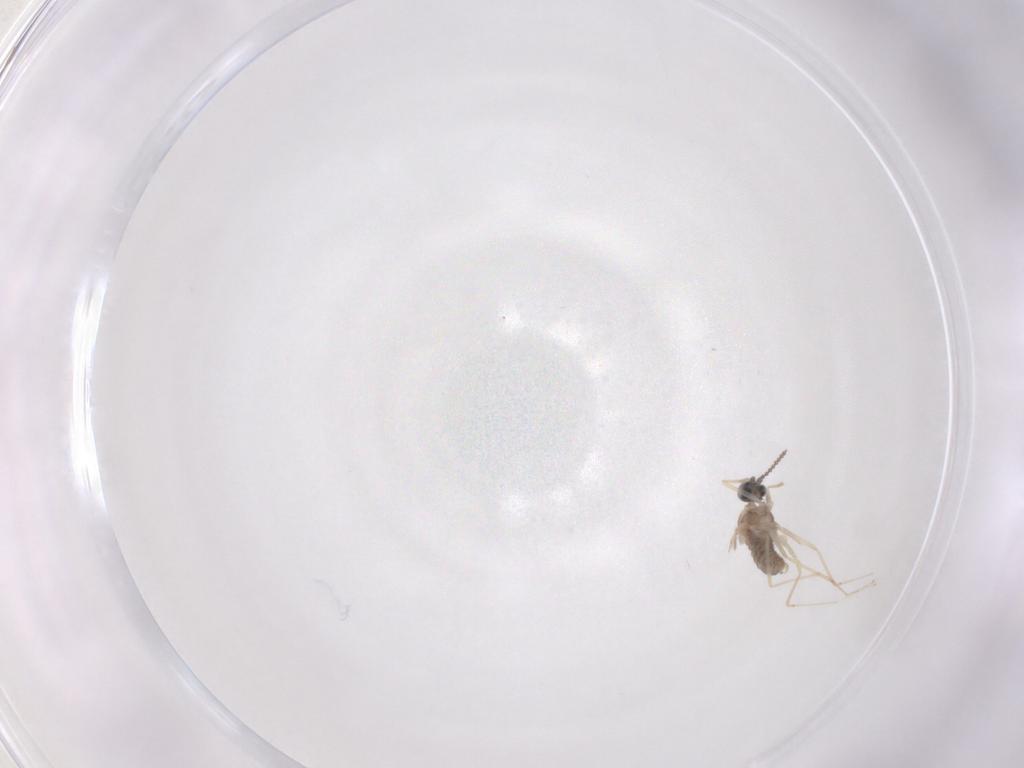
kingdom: Animalia
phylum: Arthropoda
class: Insecta
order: Diptera
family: Cecidomyiidae
